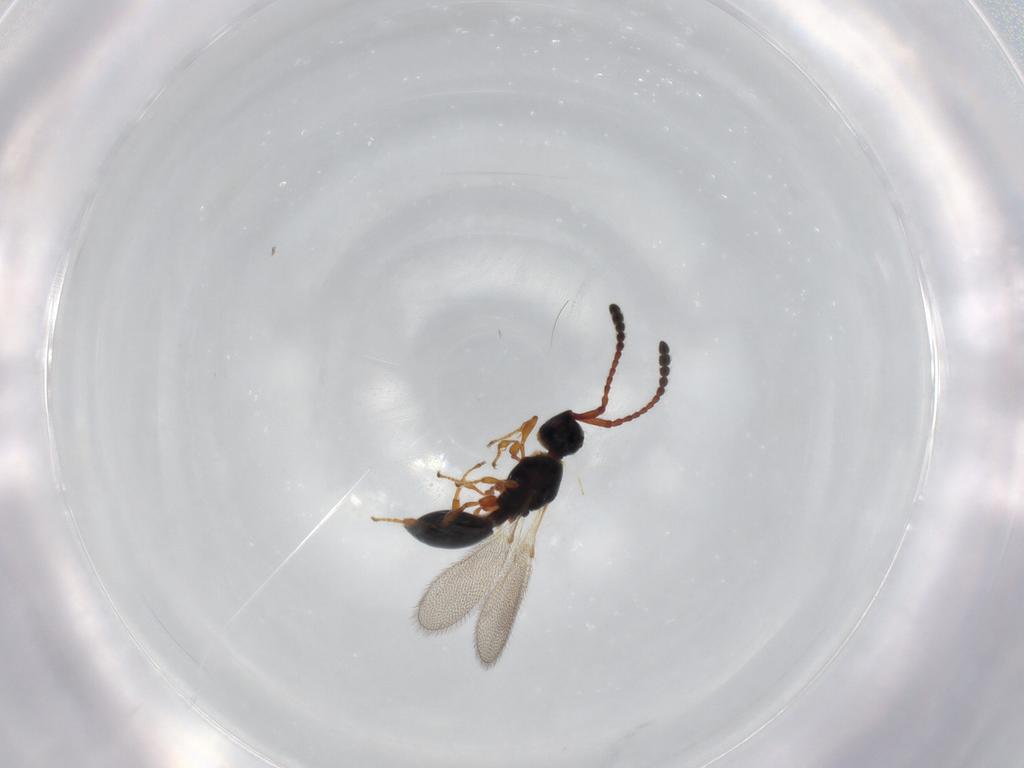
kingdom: Animalia
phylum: Arthropoda
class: Insecta
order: Hymenoptera
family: Diapriidae
